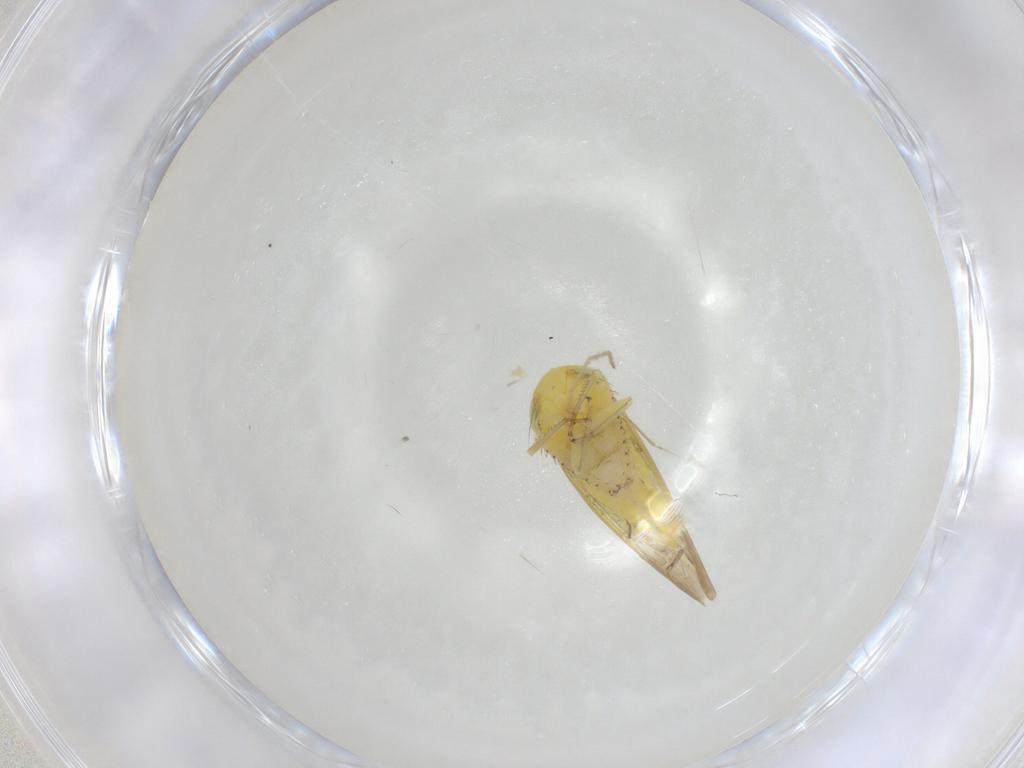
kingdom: Animalia
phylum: Arthropoda
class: Insecta
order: Hemiptera
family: Cicadellidae
